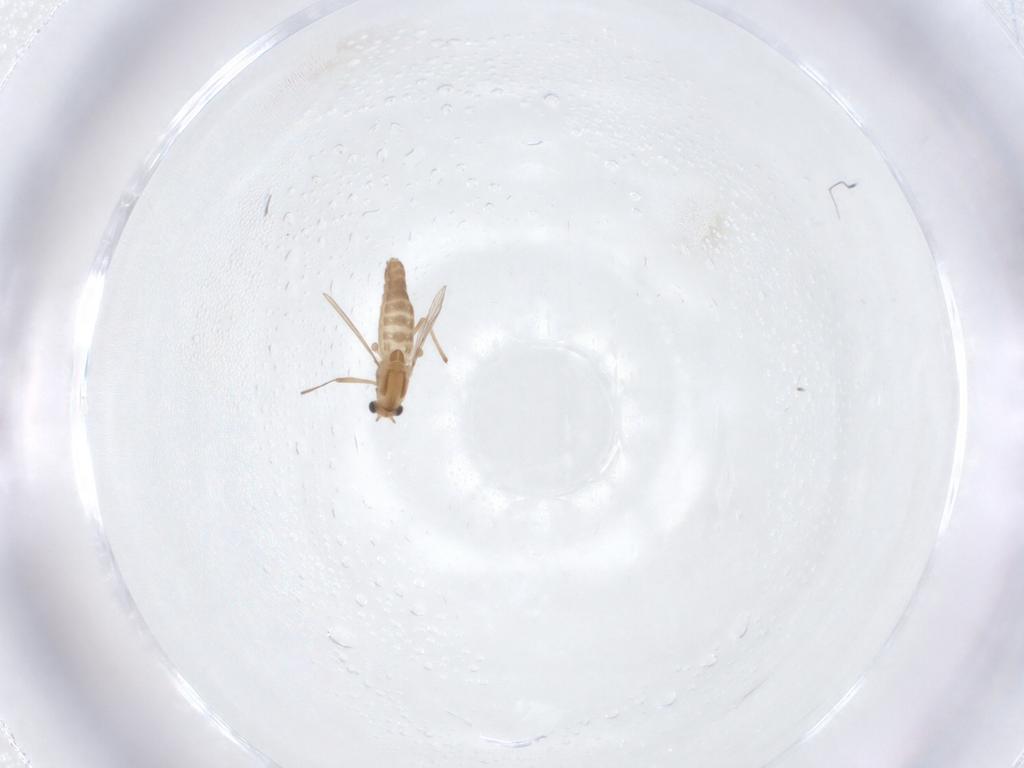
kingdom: Animalia
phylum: Arthropoda
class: Insecta
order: Diptera
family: Chironomidae
